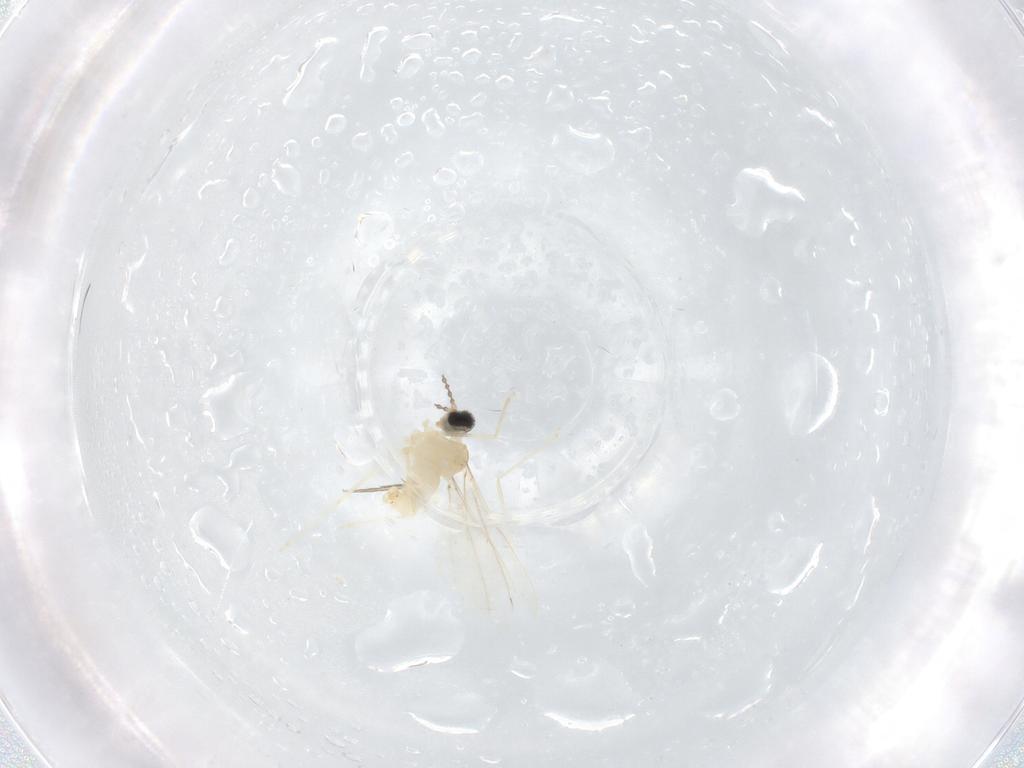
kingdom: Animalia
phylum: Arthropoda
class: Insecta
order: Diptera
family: Cecidomyiidae
